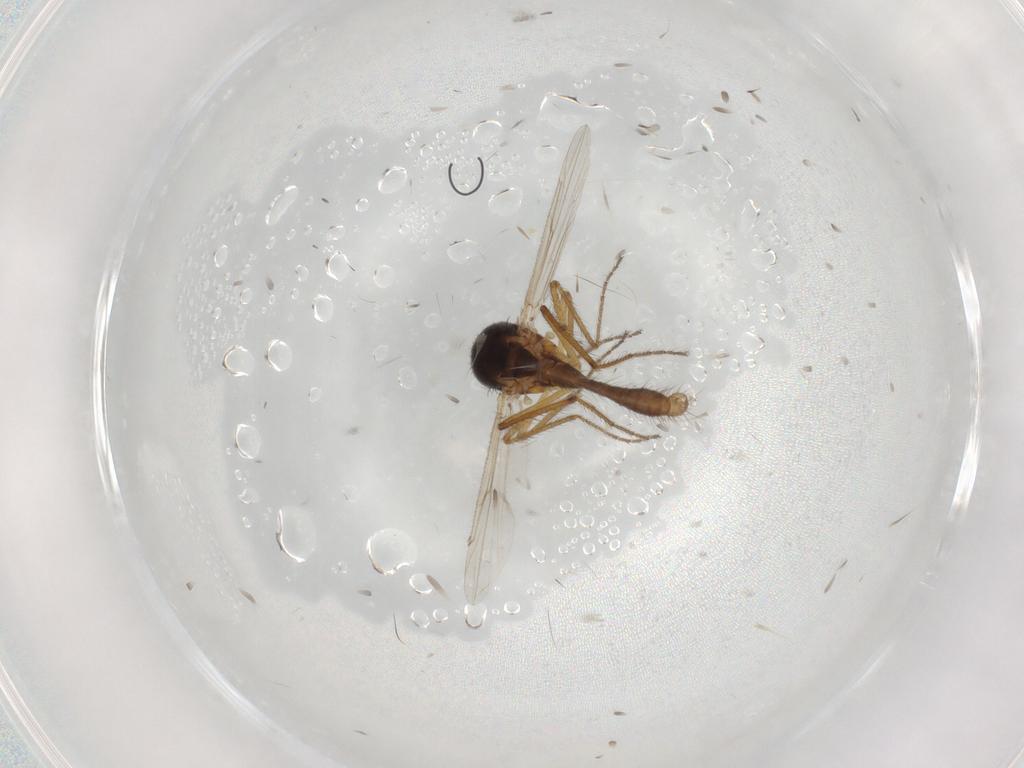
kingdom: Animalia
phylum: Arthropoda
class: Insecta
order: Diptera
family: Ceratopogonidae
